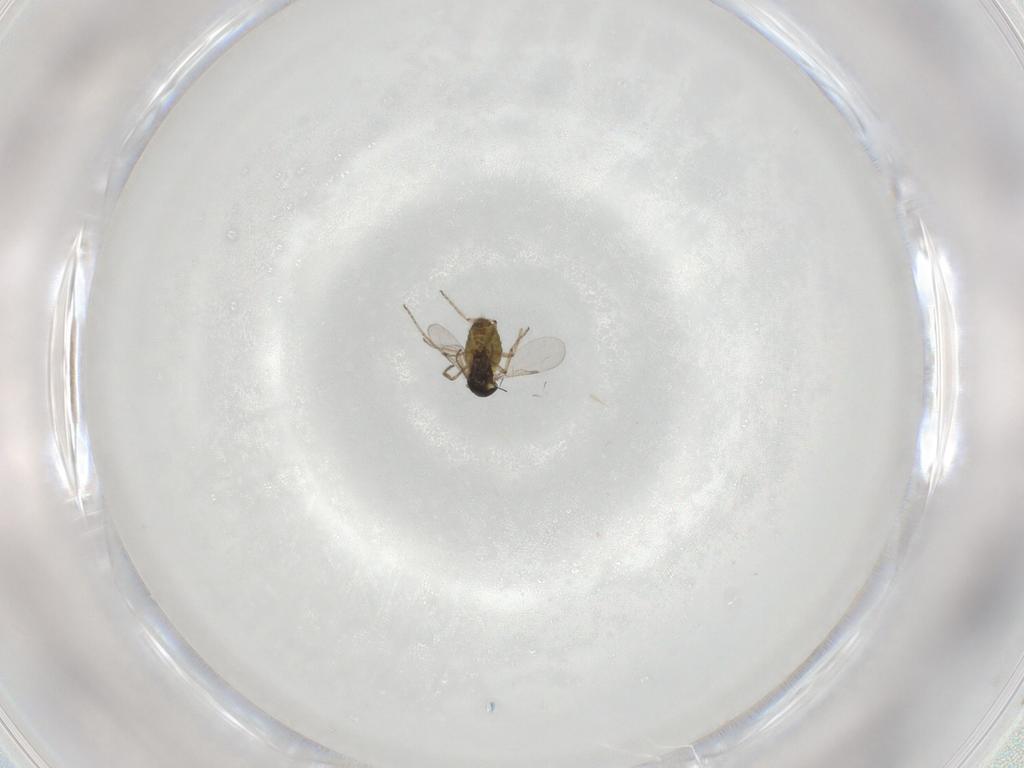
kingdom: Animalia
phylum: Arthropoda
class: Insecta
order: Diptera
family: Ceratopogonidae
